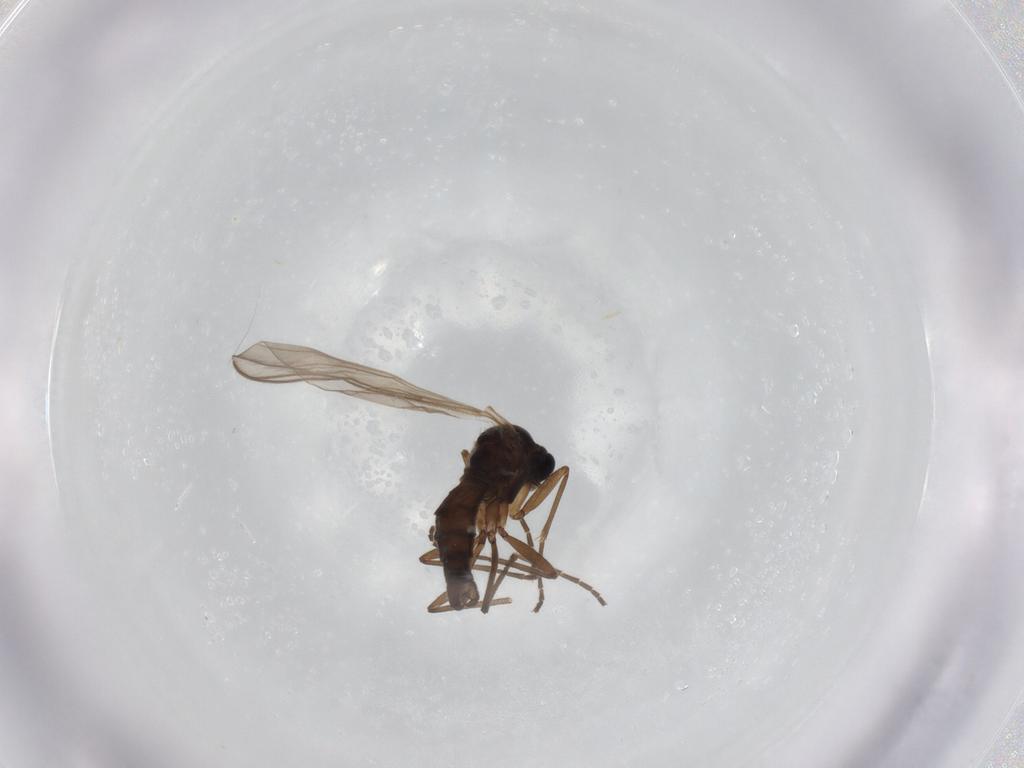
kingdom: Animalia
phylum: Arthropoda
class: Insecta
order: Diptera
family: Sciaridae
